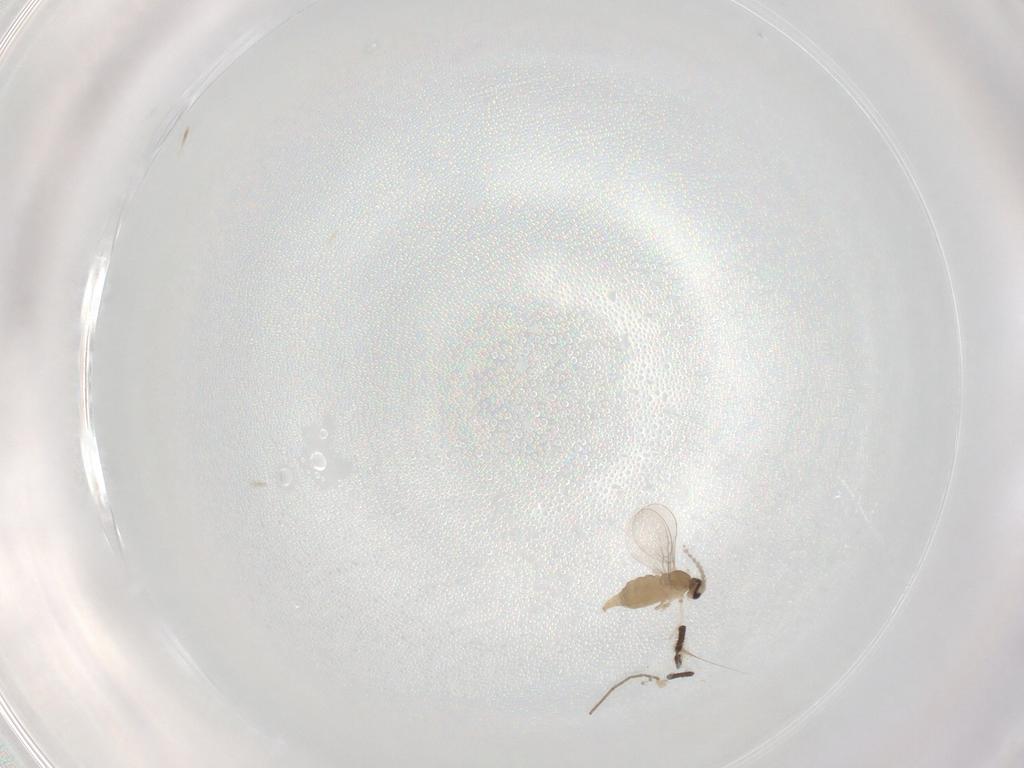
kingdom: Animalia
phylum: Arthropoda
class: Insecta
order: Diptera
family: Cecidomyiidae
